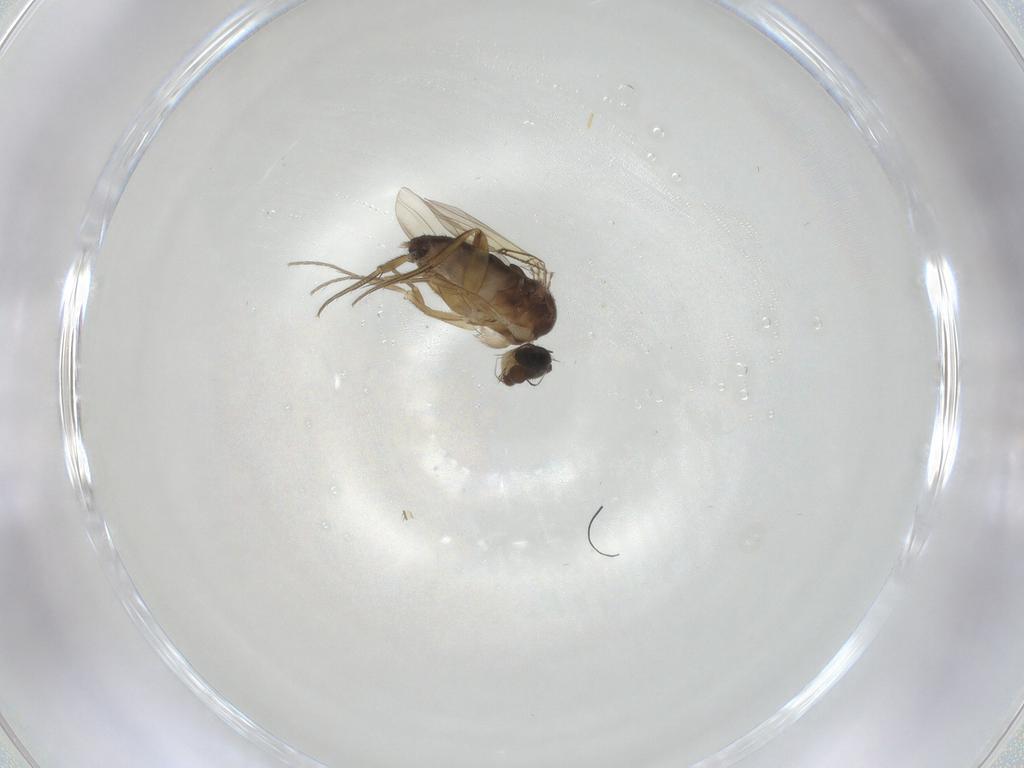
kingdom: Animalia
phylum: Arthropoda
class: Insecta
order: Diptera
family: Phoridae
